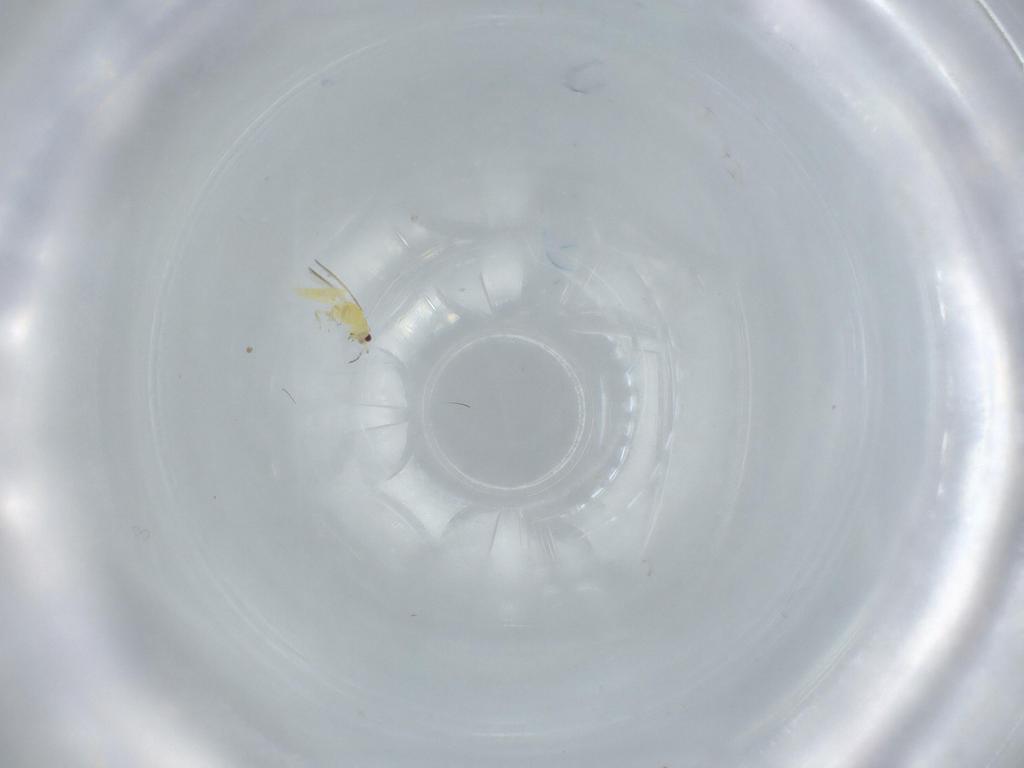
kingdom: Animalia
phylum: Arthropoda
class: Insecta
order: Thysanoptera
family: Thripidae
